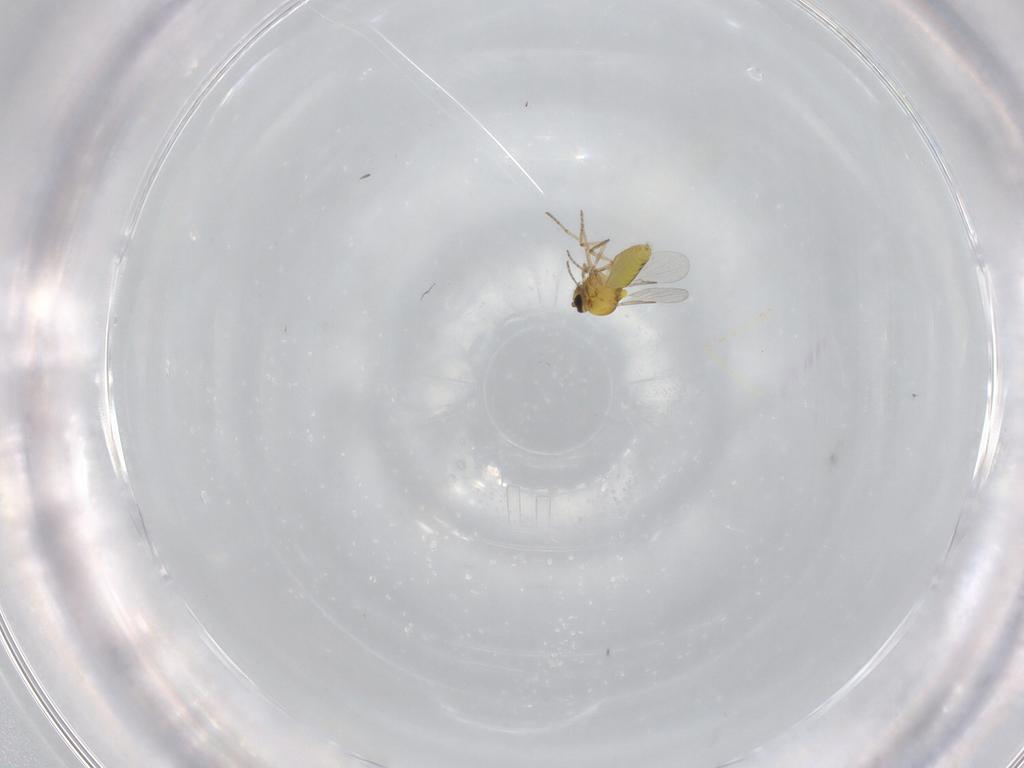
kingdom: Animalia
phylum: Arthropoda
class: Insecta
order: Diptera
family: Cecidomyiidae
